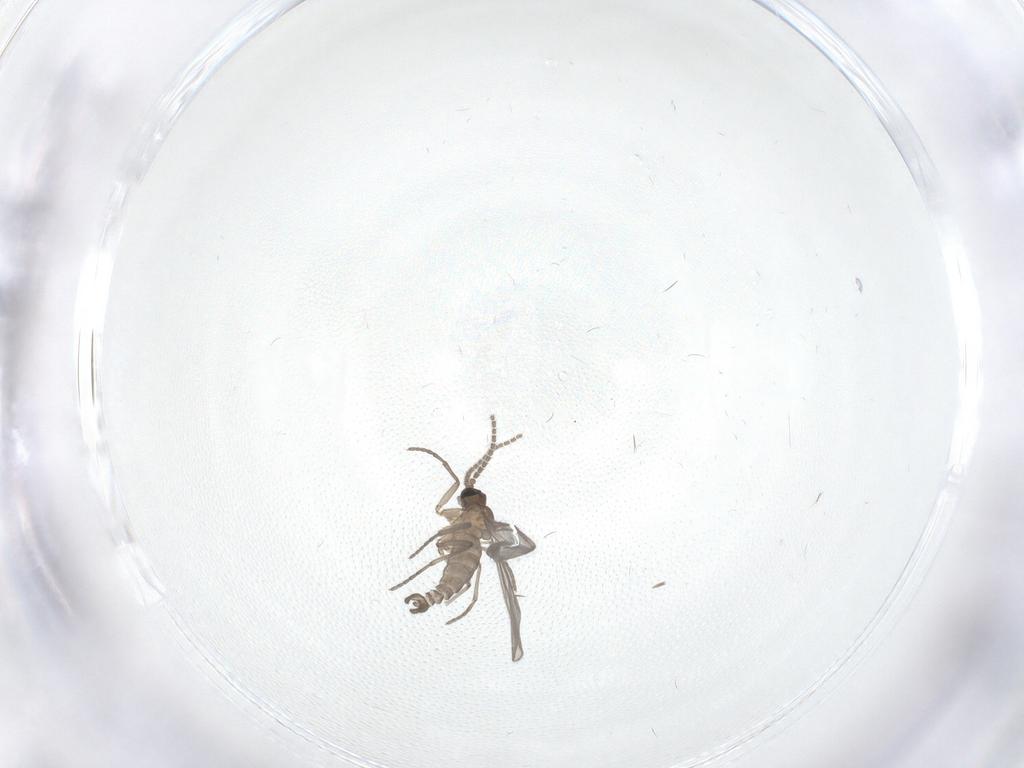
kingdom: Animalia
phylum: Arthropoda
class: Insecta
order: Diptera
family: Sciaridae
